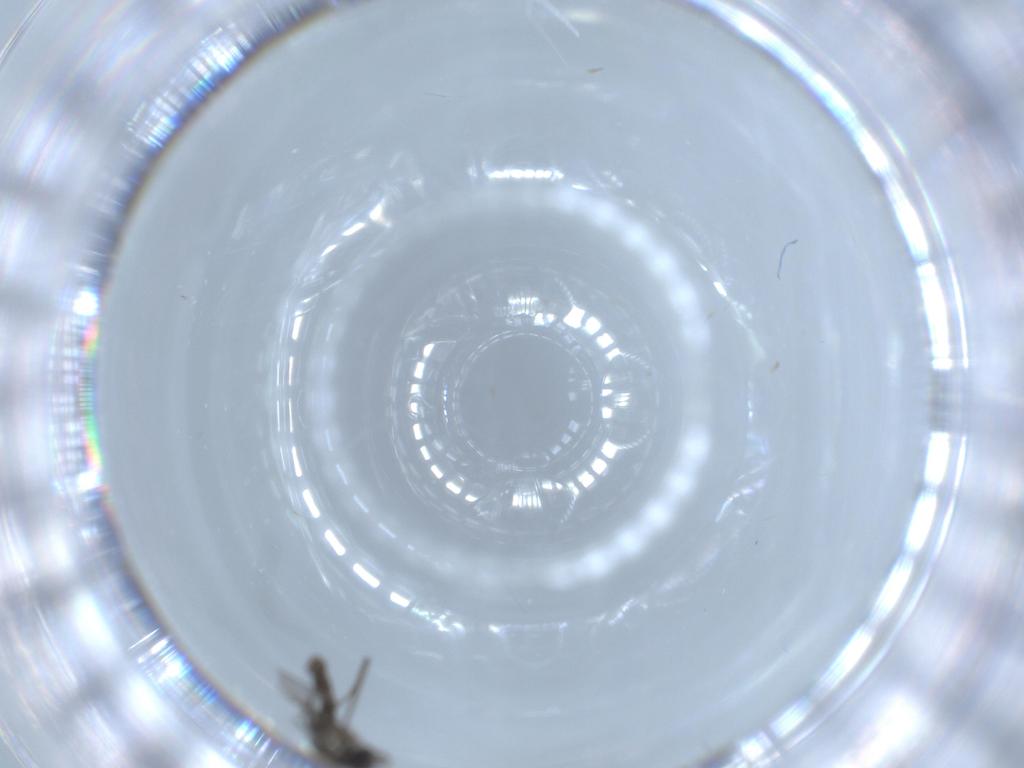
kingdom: Animalia
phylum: Arthropoda
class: Insecta
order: Diptera
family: Cecidomyiidae
